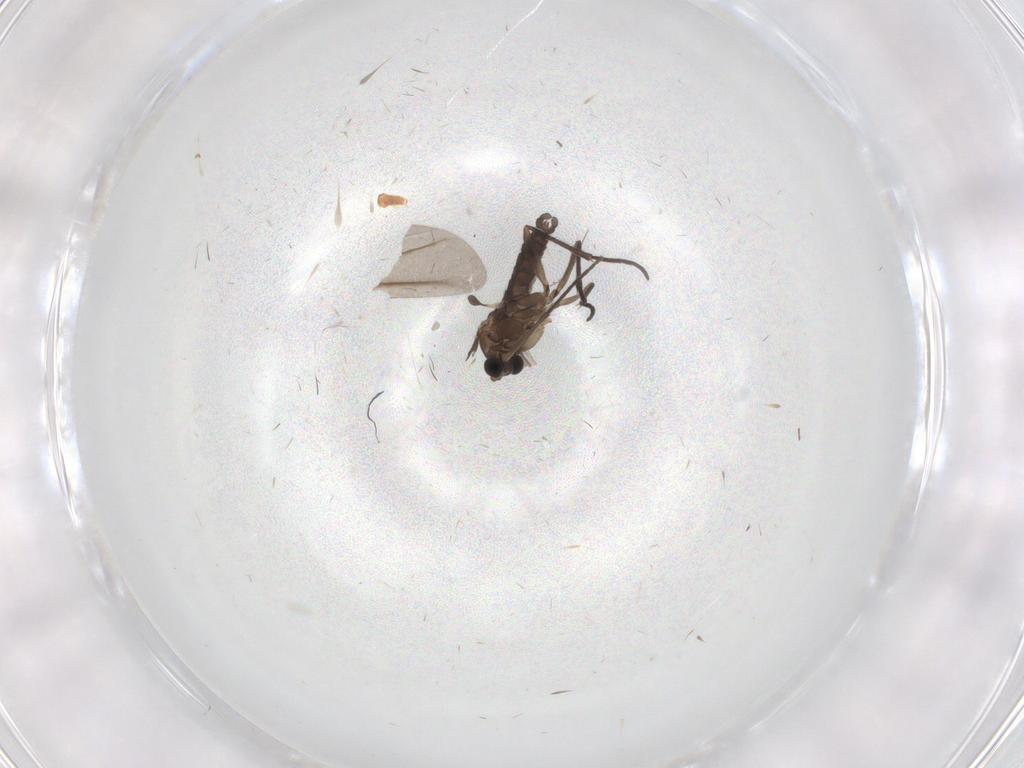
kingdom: Animalia
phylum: Arthropoda
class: Insecta
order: Diptera
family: Sciaridae
